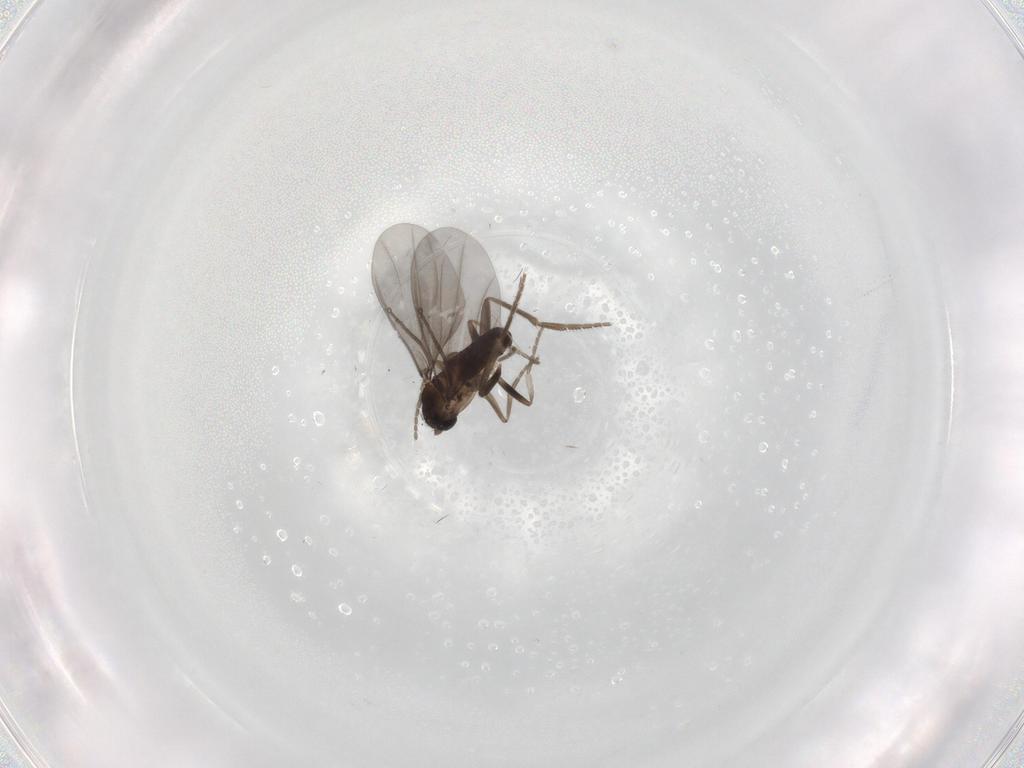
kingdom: Animalia
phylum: Arthropoda
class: Insecta
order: Diptera
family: Phoridae
